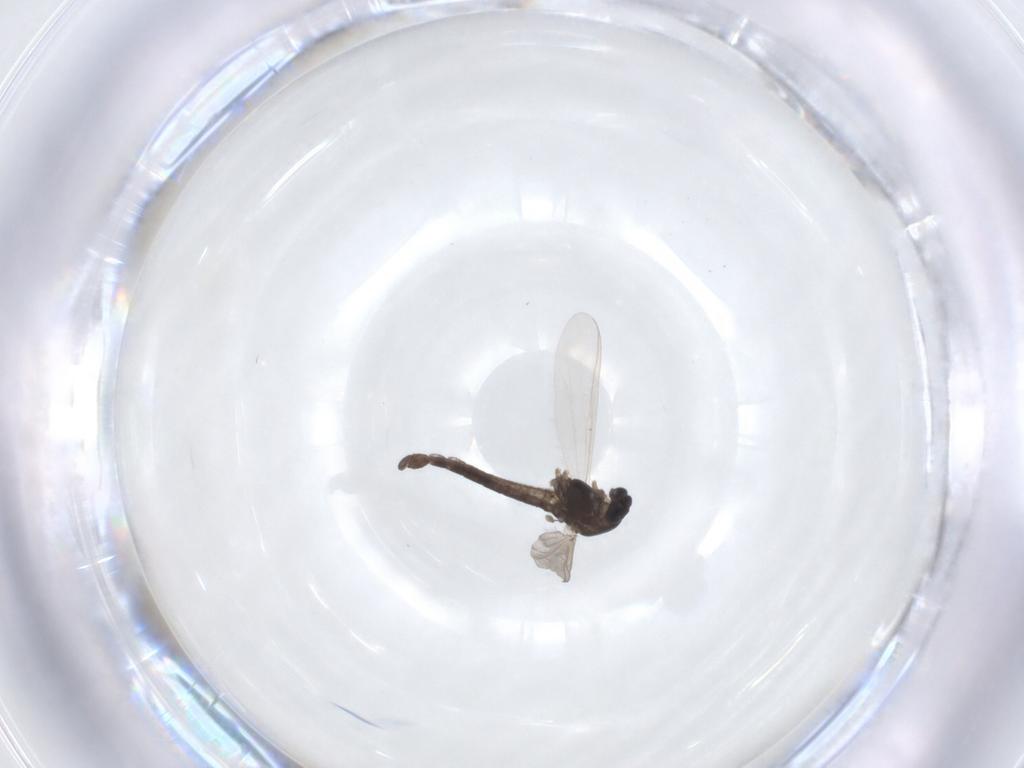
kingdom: Animalia
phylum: Arthropoda
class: Insecta
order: Diptera
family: Chironomidae
